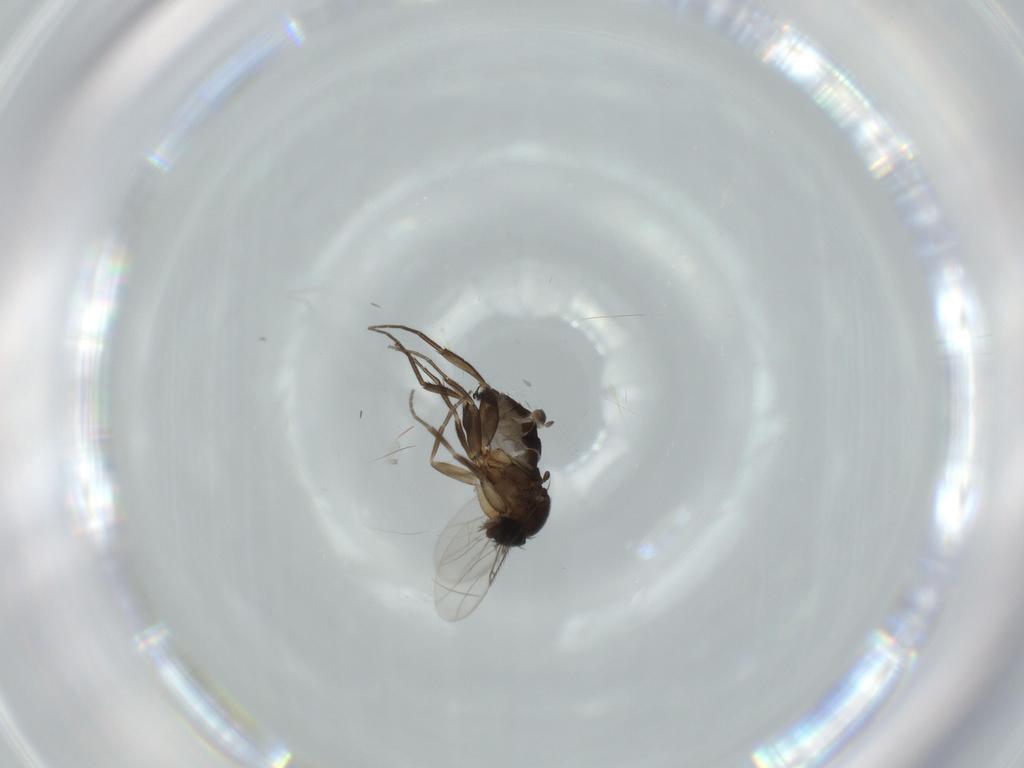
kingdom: Animalia
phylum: Arthropoda
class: Insecta
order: Diptera
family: Phoridae
